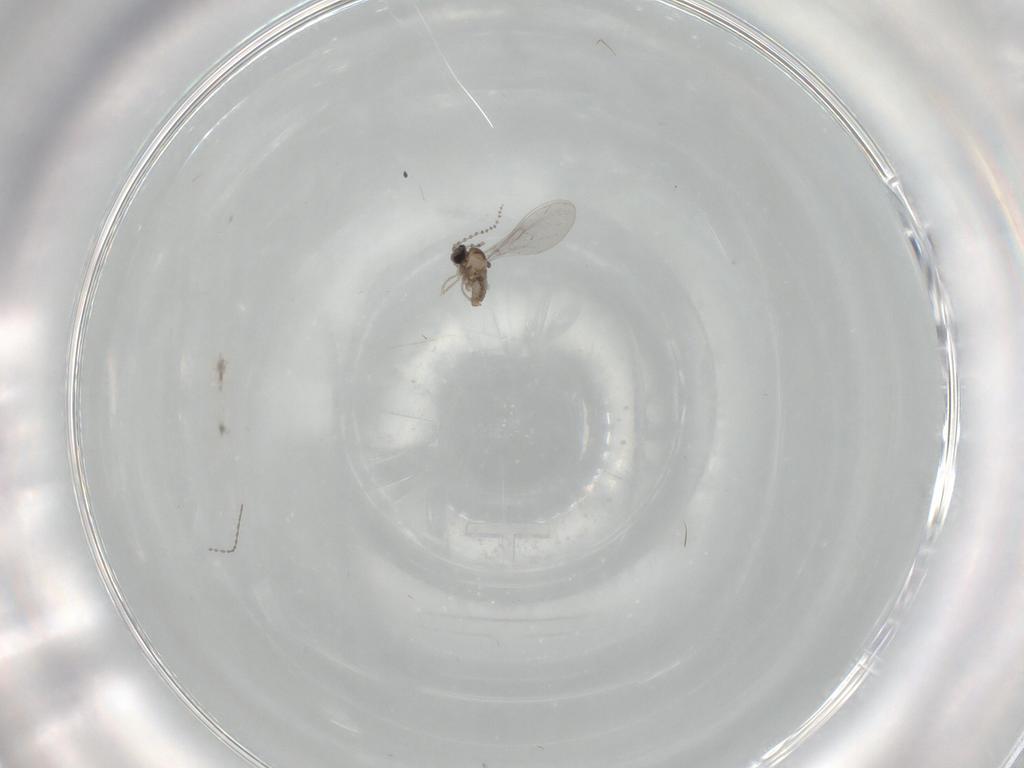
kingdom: Animalia
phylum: Arthropoda
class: Insecta
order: Diptera
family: Cecidomyiidae
